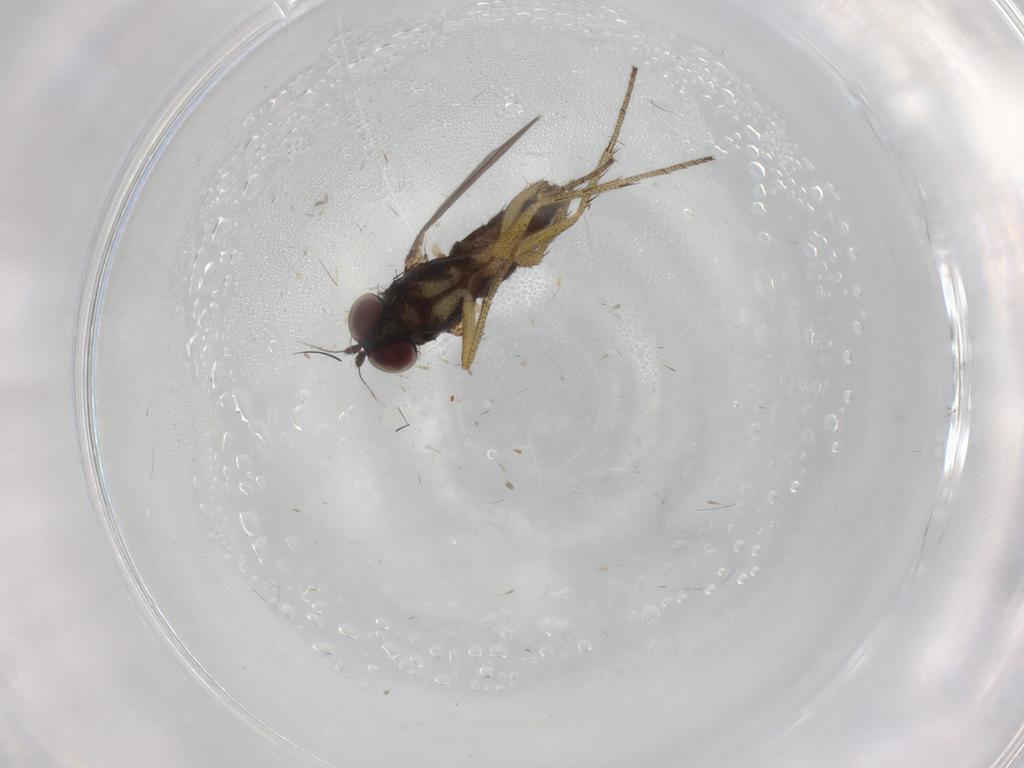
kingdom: Animalia
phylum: Arthropoda
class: Insecta
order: Diptera
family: Dolichopodidae
